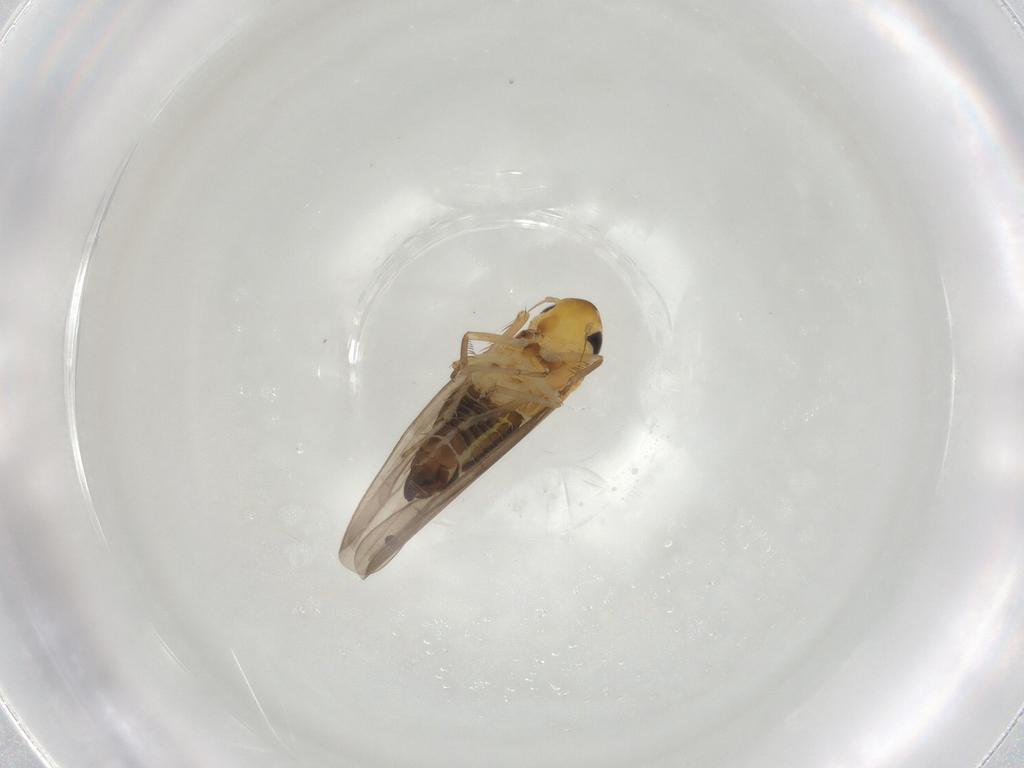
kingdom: Animalia
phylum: Arthropoda
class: Insecta
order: Hemiptera
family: Cicadellidae
